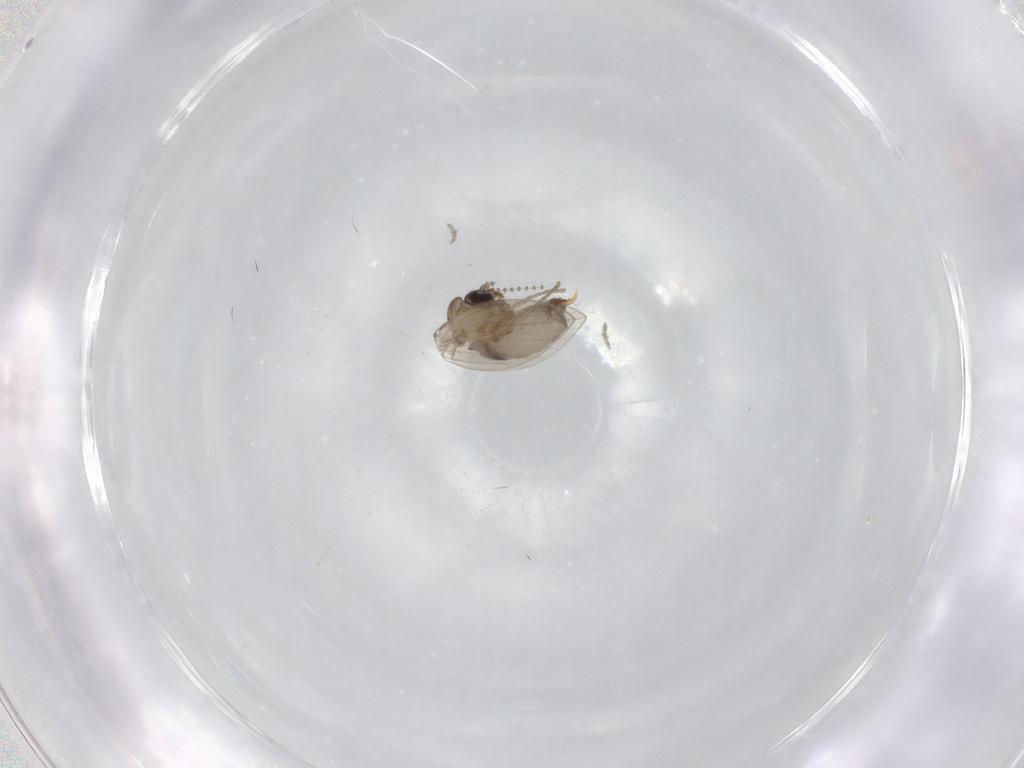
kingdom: Animalia
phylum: Arthropoda
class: Insecta
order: Diptera
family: Psychodidae
